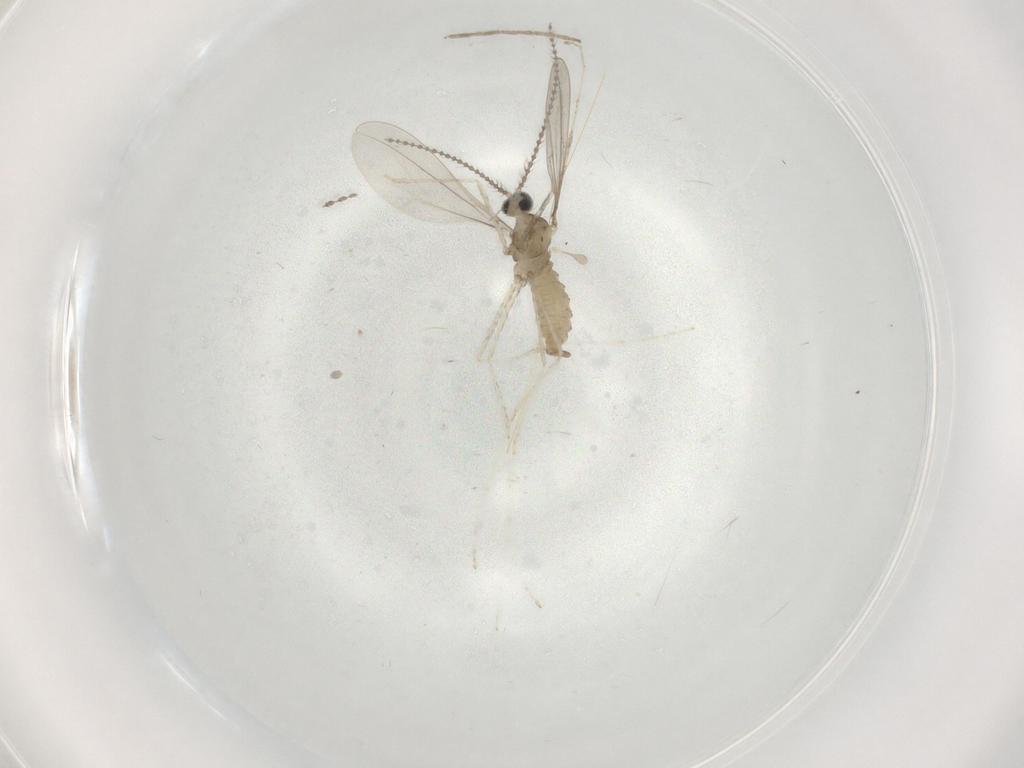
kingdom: Animalia
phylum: Arthropoda
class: Insecta
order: Diptera
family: Cecidomyiidae
